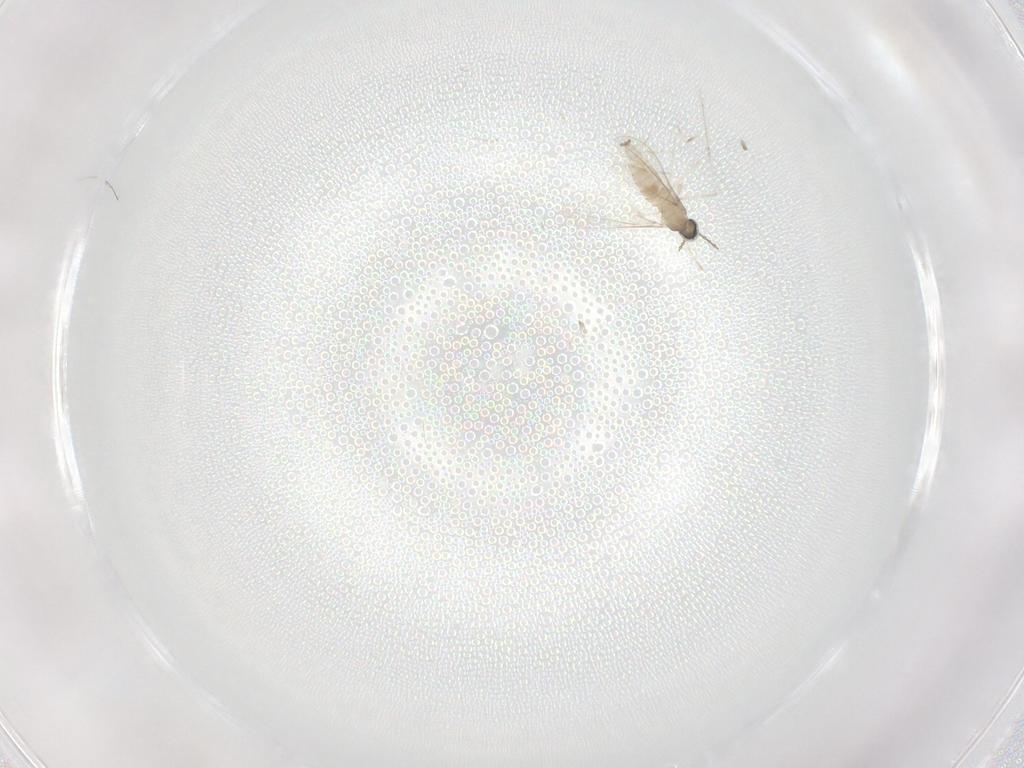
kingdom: Animalia
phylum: Arthropoda
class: Insecta
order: Diptera
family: Cecidomyiidae
